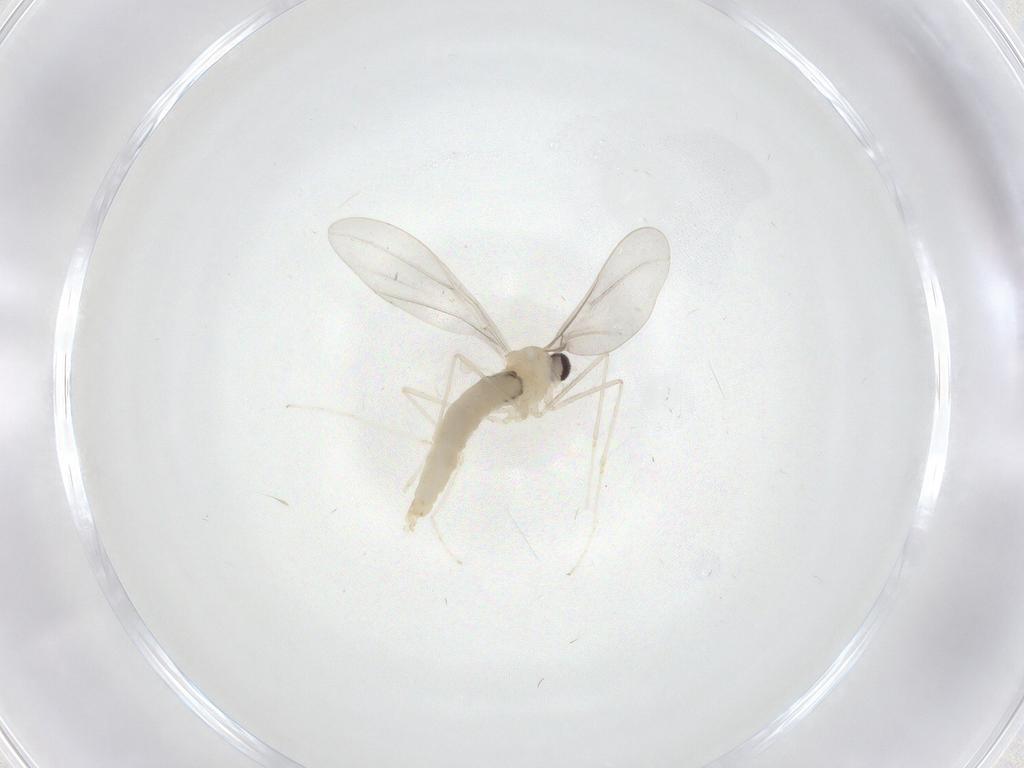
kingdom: Animalia
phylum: Arthropoda
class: Insecta
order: Diptera
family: Cecidomyiidae
